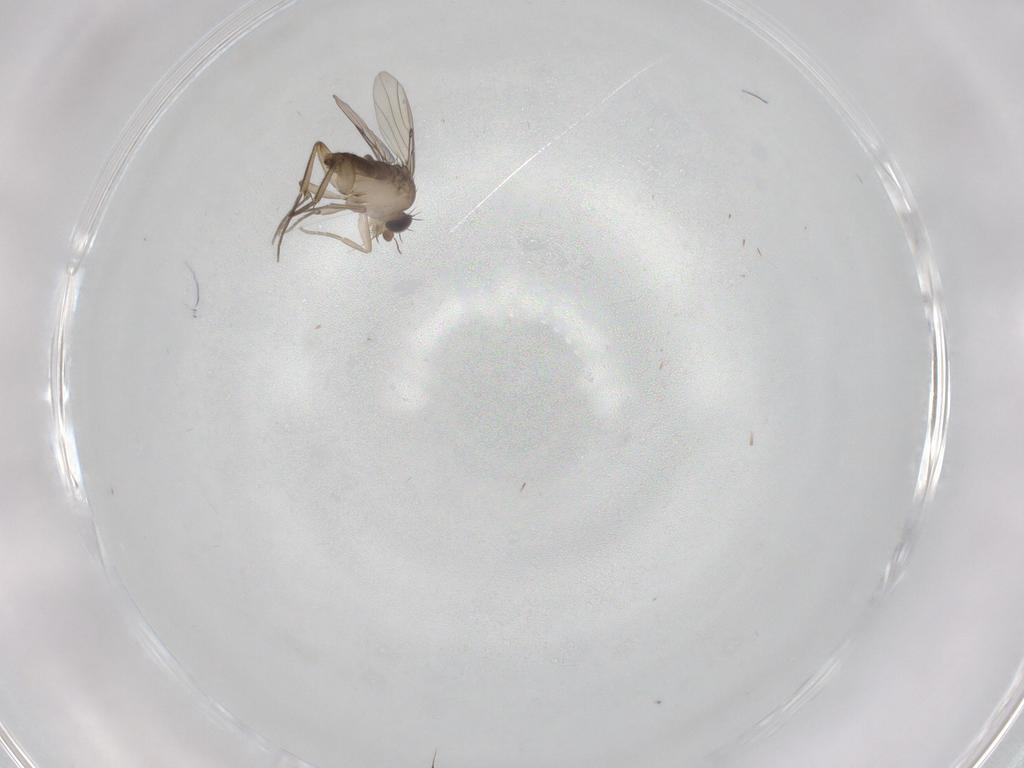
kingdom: Animalia
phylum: Arthropoda
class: Insecta
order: Diptera
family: Phoridae
